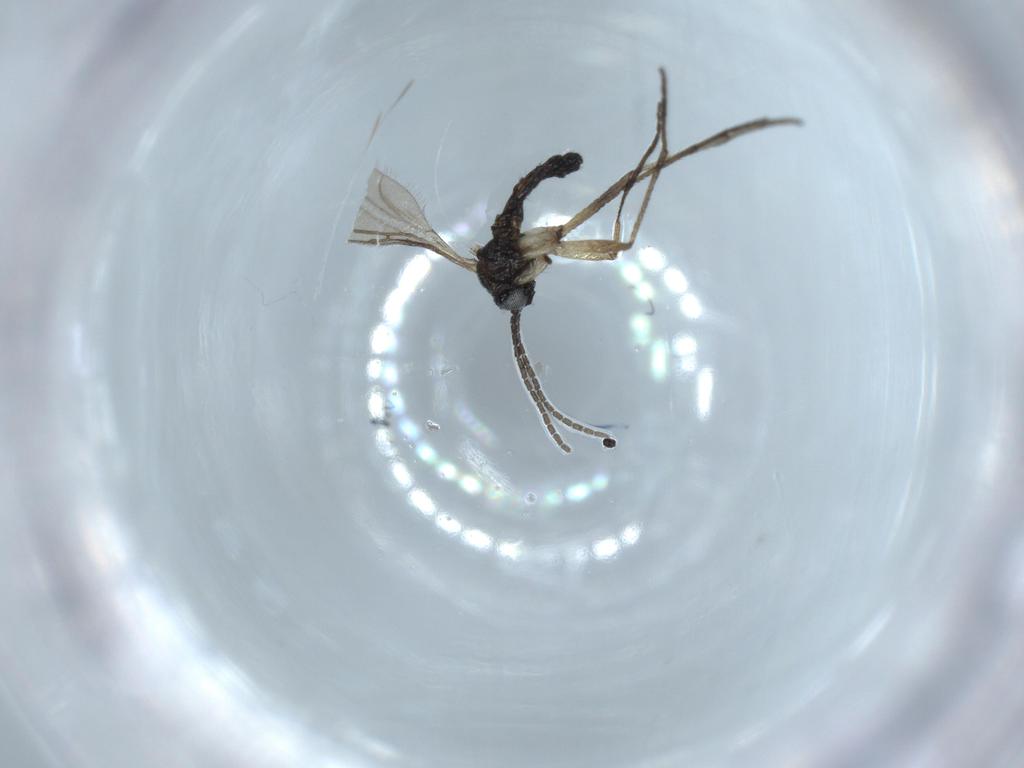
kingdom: Animalia
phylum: Arthropoda
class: Insecta
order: Diptera
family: Sciaridae
